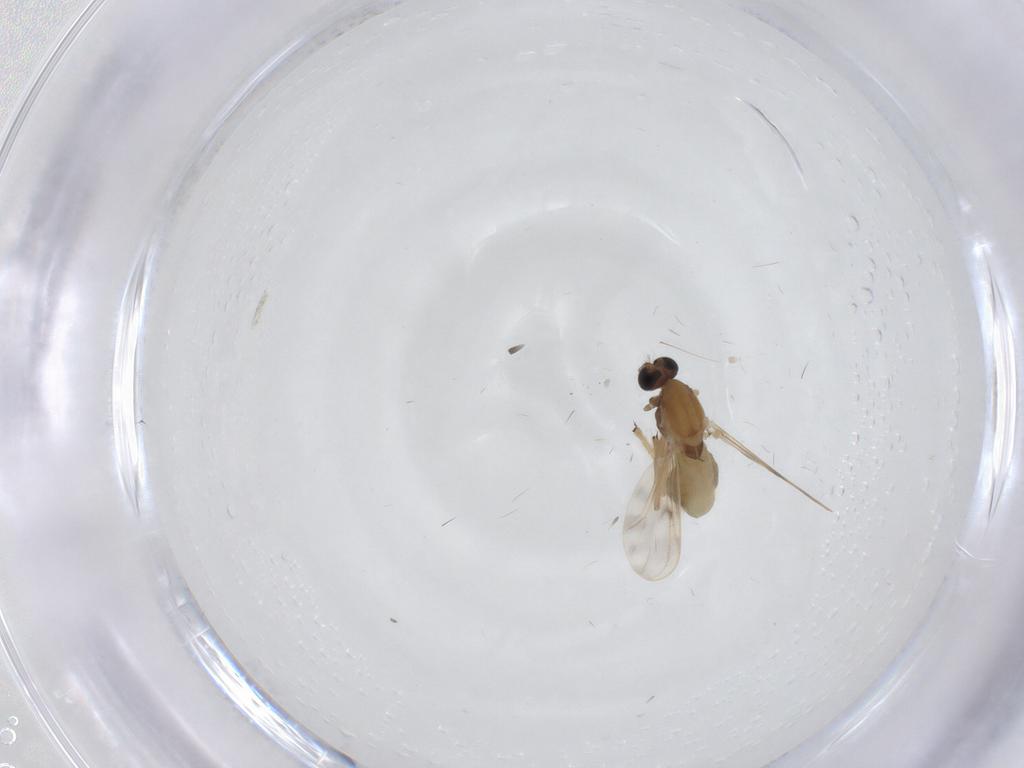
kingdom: Animalia
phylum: Arthropoda
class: Insecta
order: Diptera
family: Chironomidae
